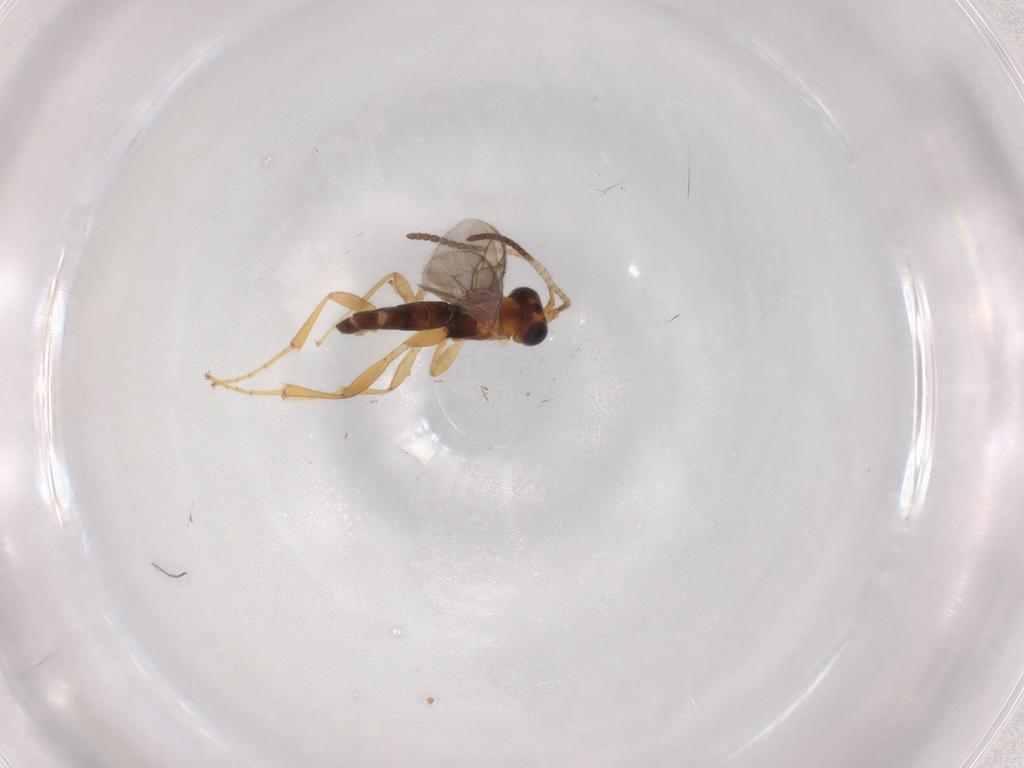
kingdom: Animalia
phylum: Arthropoda
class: Insecta
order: Hymenoptera
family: Ichneumonidae
